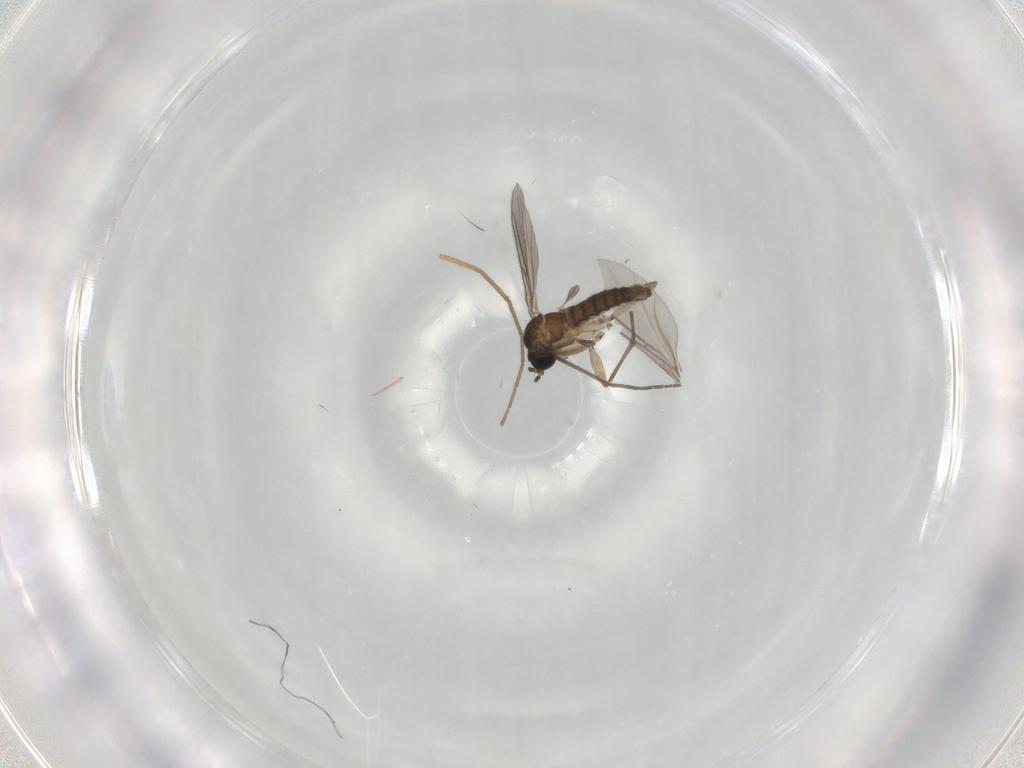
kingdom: Animalia
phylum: Arthropoda
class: Insecta
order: Diptera
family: Sciaridae
